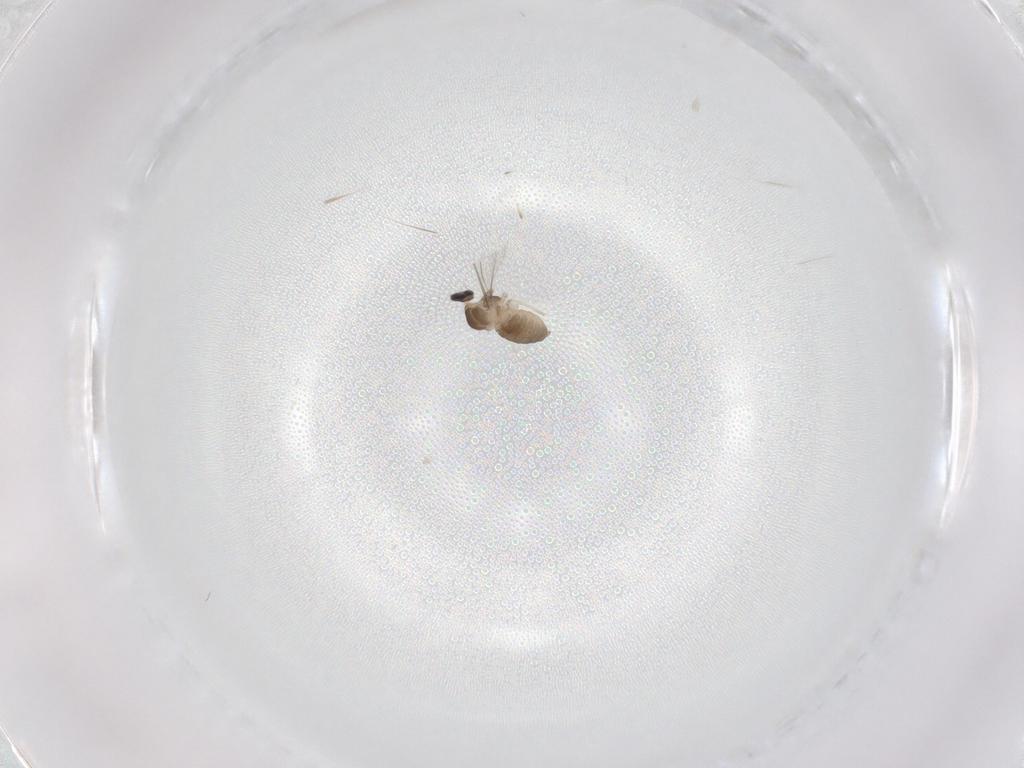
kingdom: Animalia
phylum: Arthropoda
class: Insecta
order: Diptera
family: Cecidomyiidae
